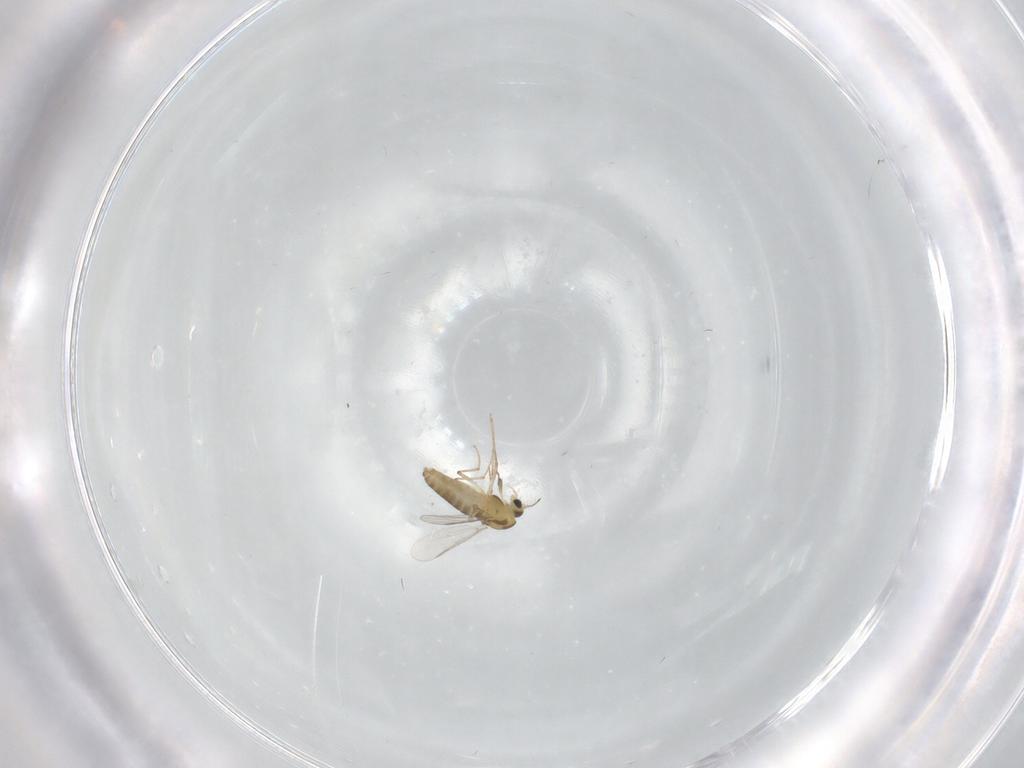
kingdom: Animalia
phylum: Arthropoda
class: Insecta
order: Diptera
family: Chironomidae
